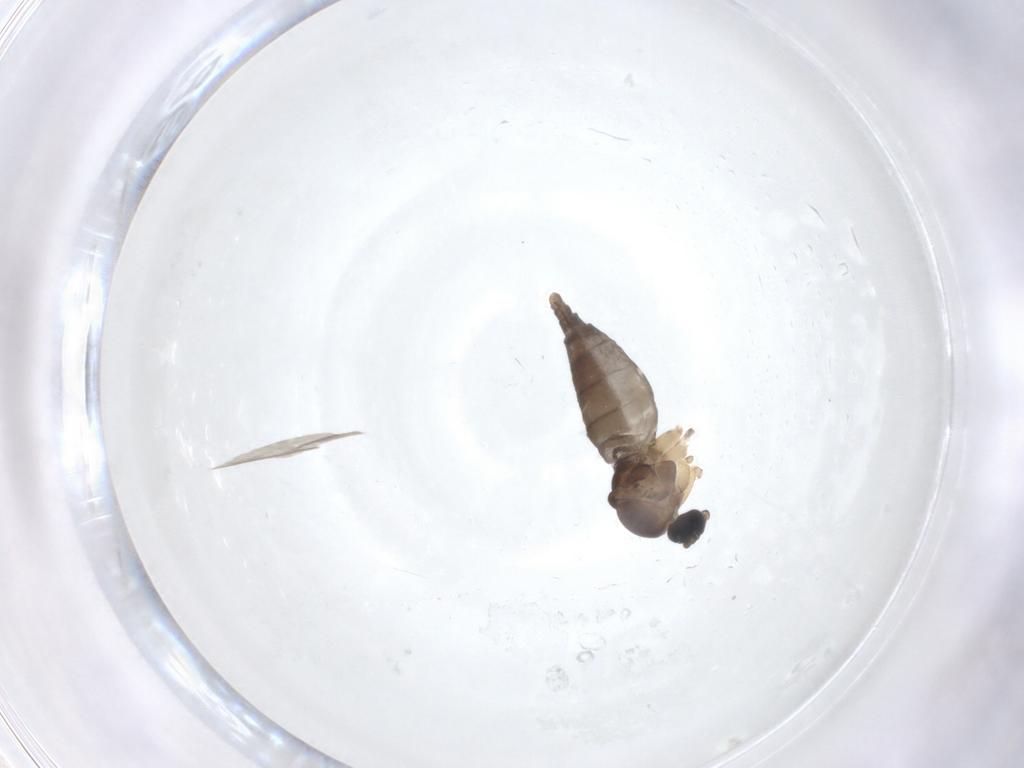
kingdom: Animalia
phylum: Arthropoda
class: Insecta
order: Diptera
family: Sciaridae
